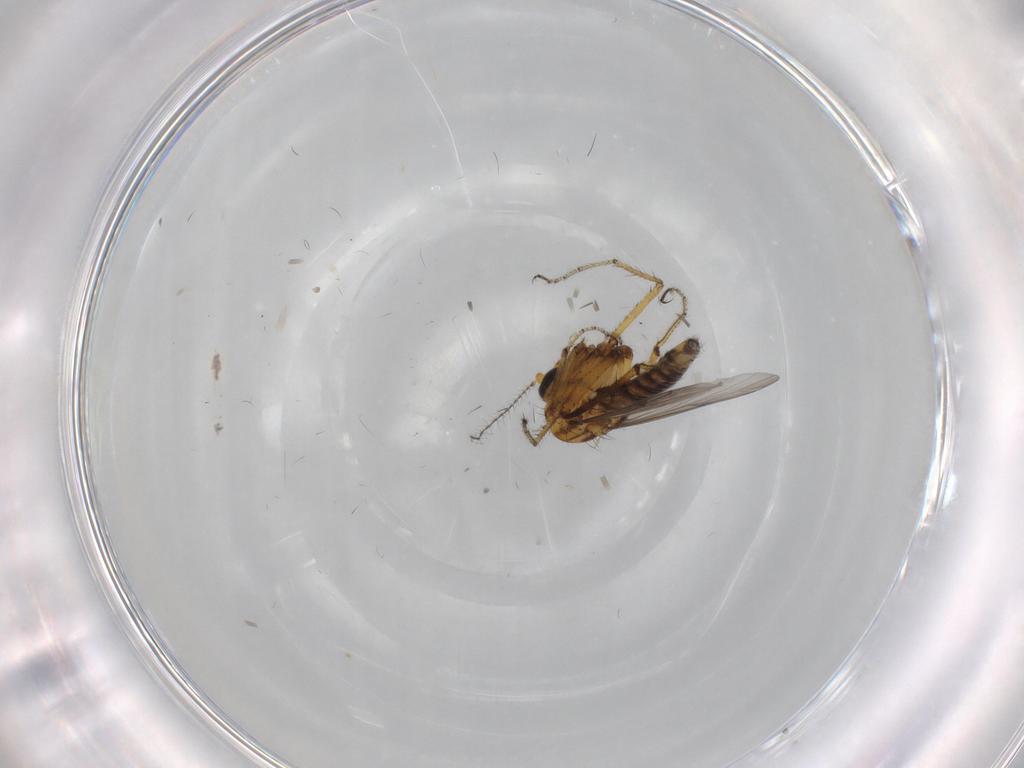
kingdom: Animalia
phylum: Arthropoda
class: Insecta
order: Diptera
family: Ceratopogonidae
